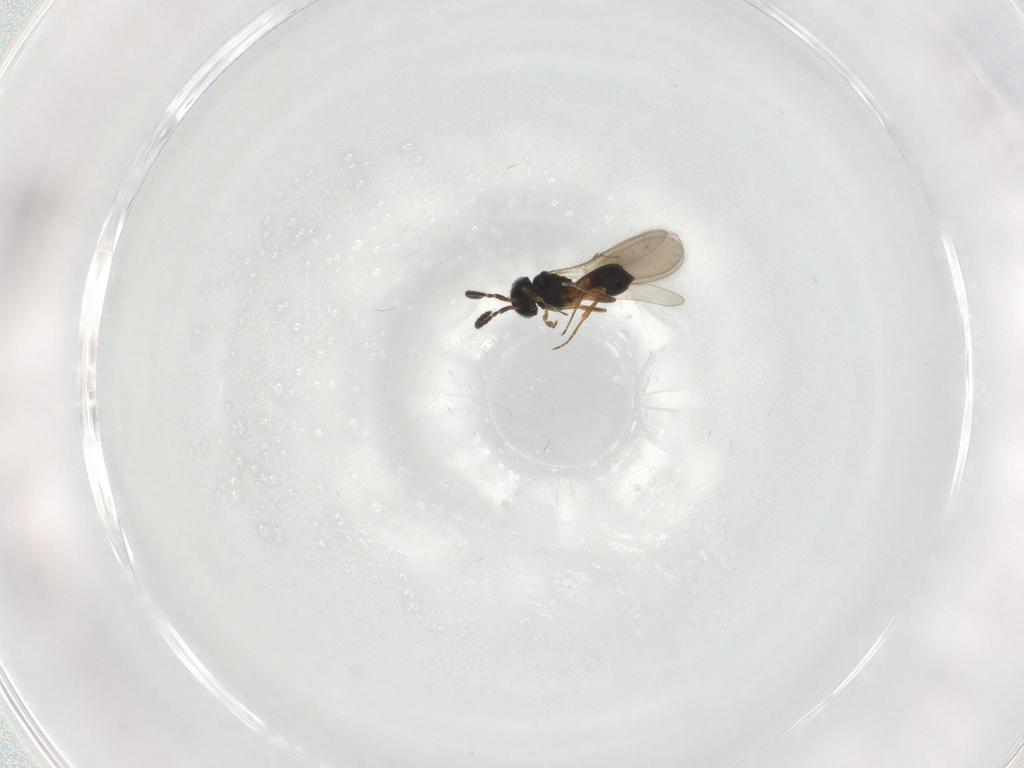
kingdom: Animalia
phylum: Arthropoda
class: Insecta
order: Hymenoptera
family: Scelionidae
